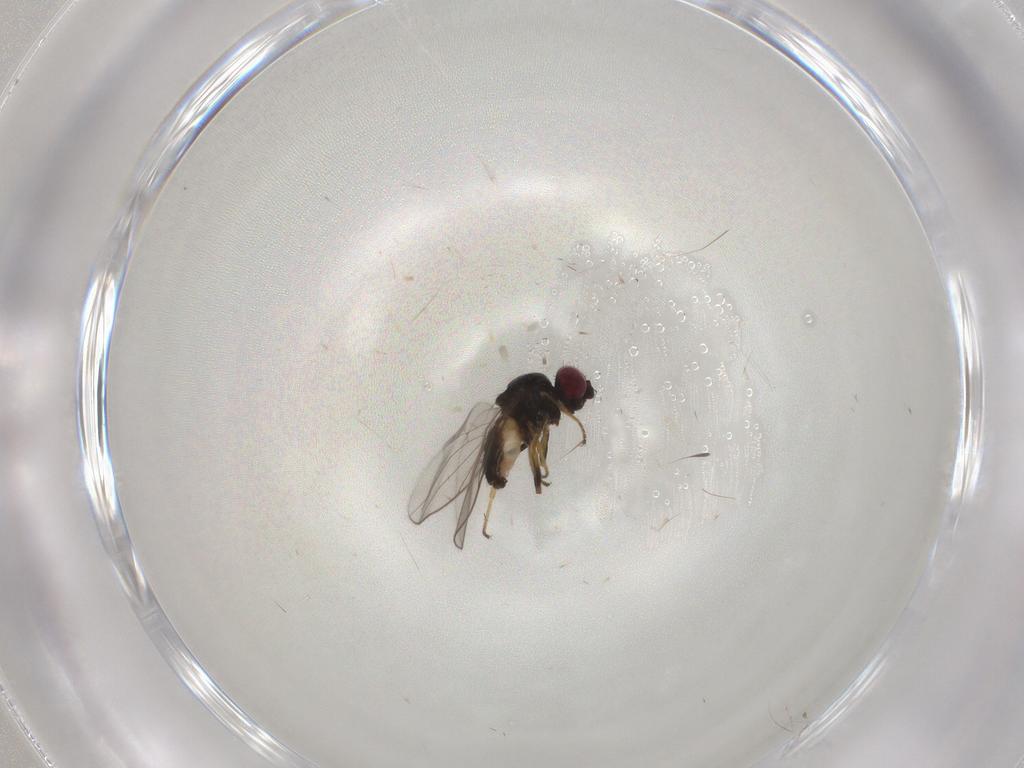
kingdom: Animalia
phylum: Arthropoda
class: Insecta
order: Diptera
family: Chloropidae
